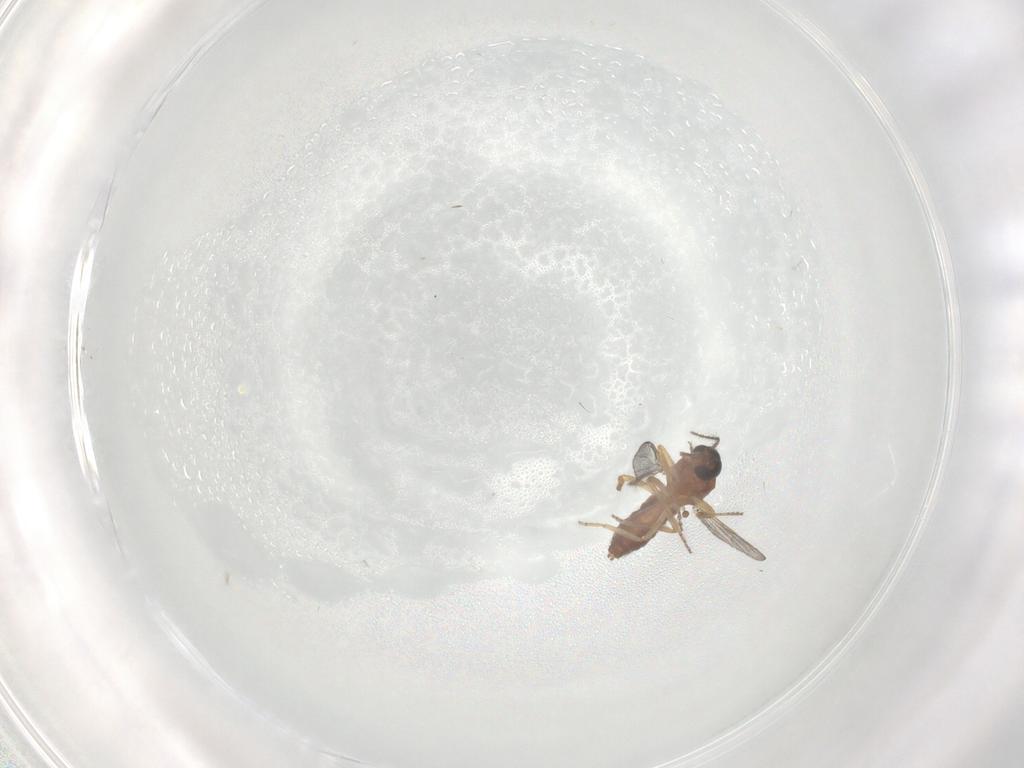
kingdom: Animalia
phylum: Arthropoda
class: Insecta
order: Diptera
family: Ceratopogonidae
